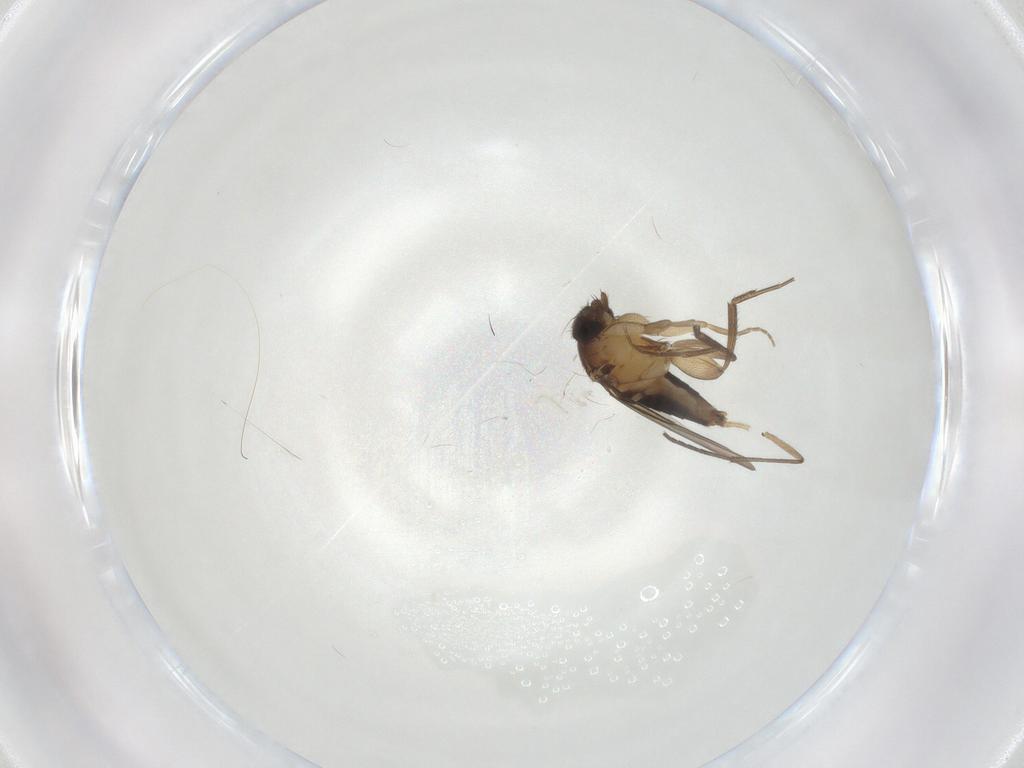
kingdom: Animalia
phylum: Arthropoda
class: Insecta
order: Diptera
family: Phoridae
